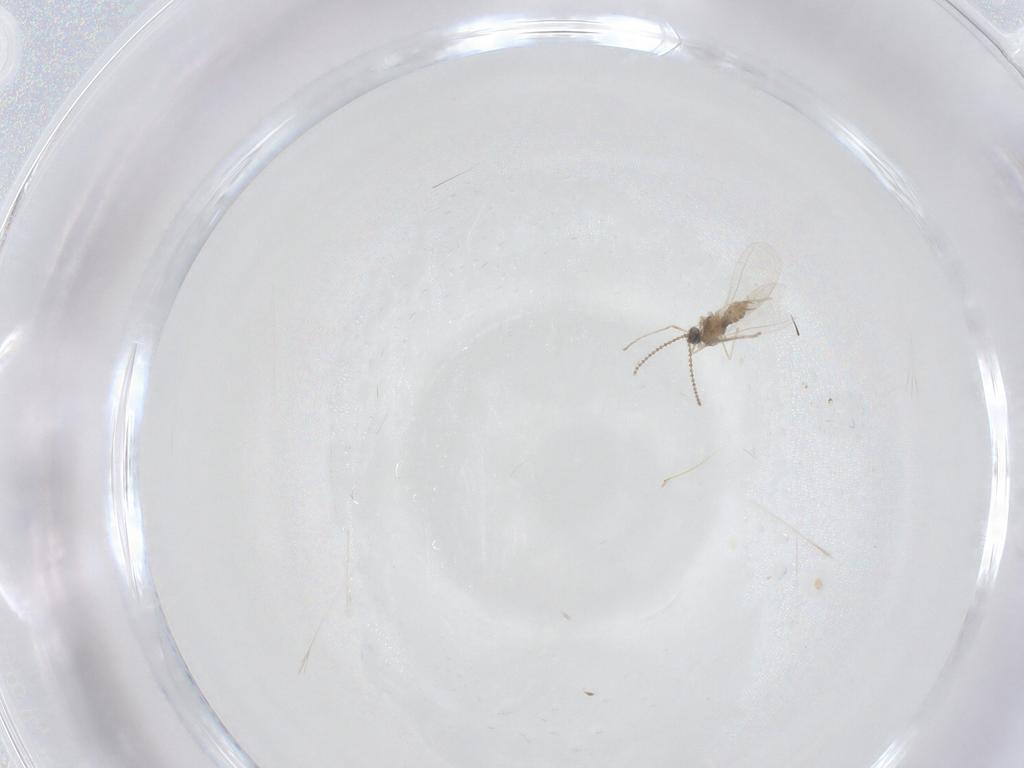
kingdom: Animalia
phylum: Arthropoda
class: Insecta
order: Diptera
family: Cecidomyiidae
